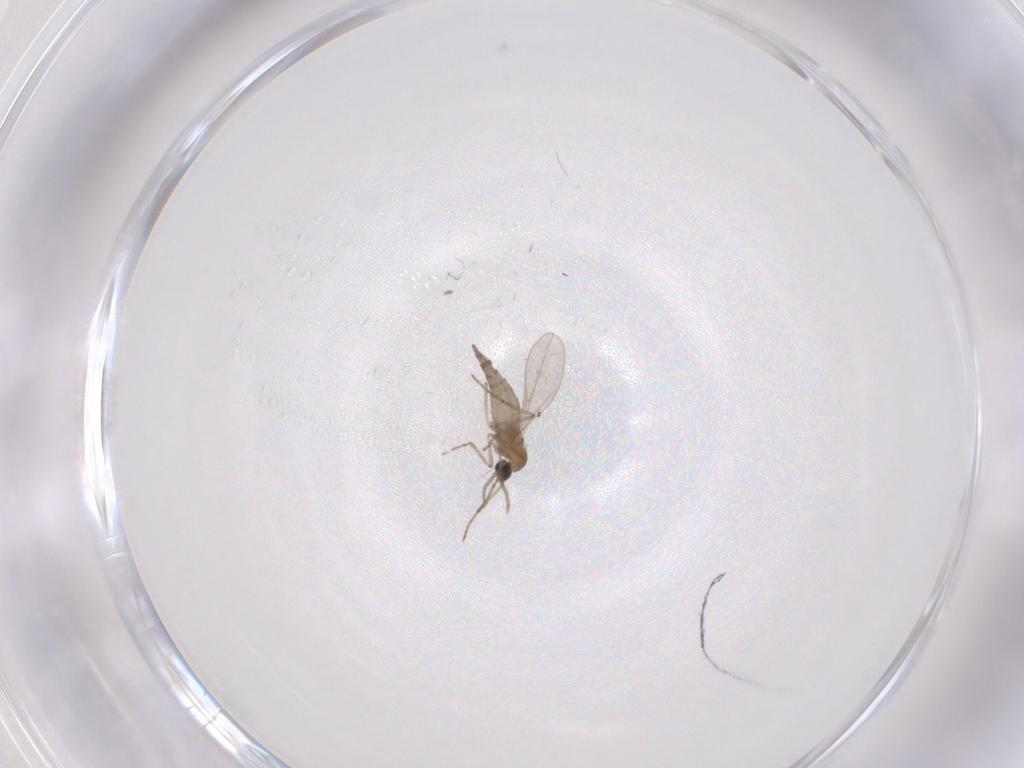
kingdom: Animalia
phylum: Arthropoda
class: Insecta
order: Diptera
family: Cecidomyiidae
